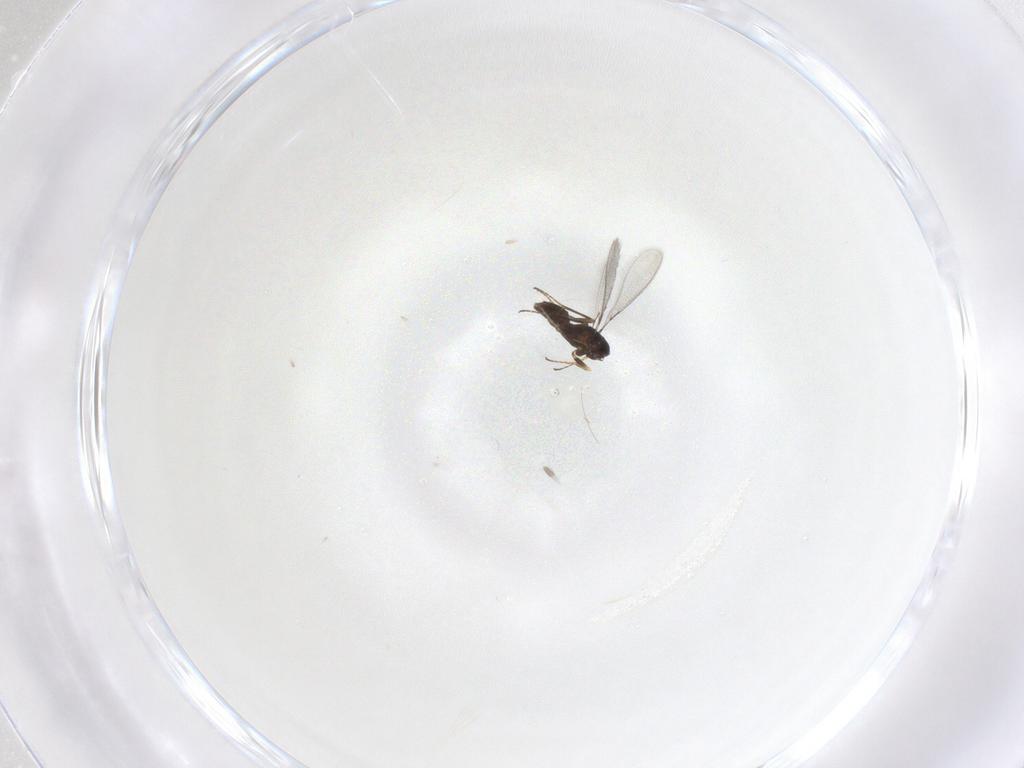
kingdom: Animalia
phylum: Arthropoda
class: Insecta
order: Hymenoptera
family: Mymaridae
